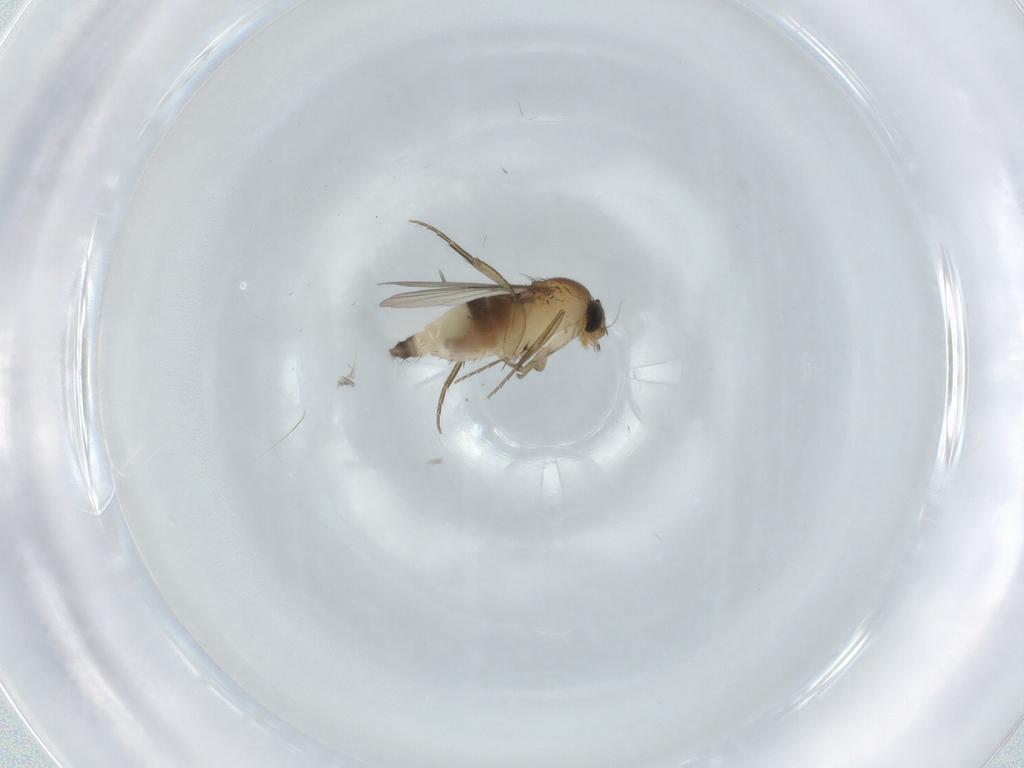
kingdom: Animalia
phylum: Arthropoda
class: Insecta
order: Diptera
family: Phoridae
